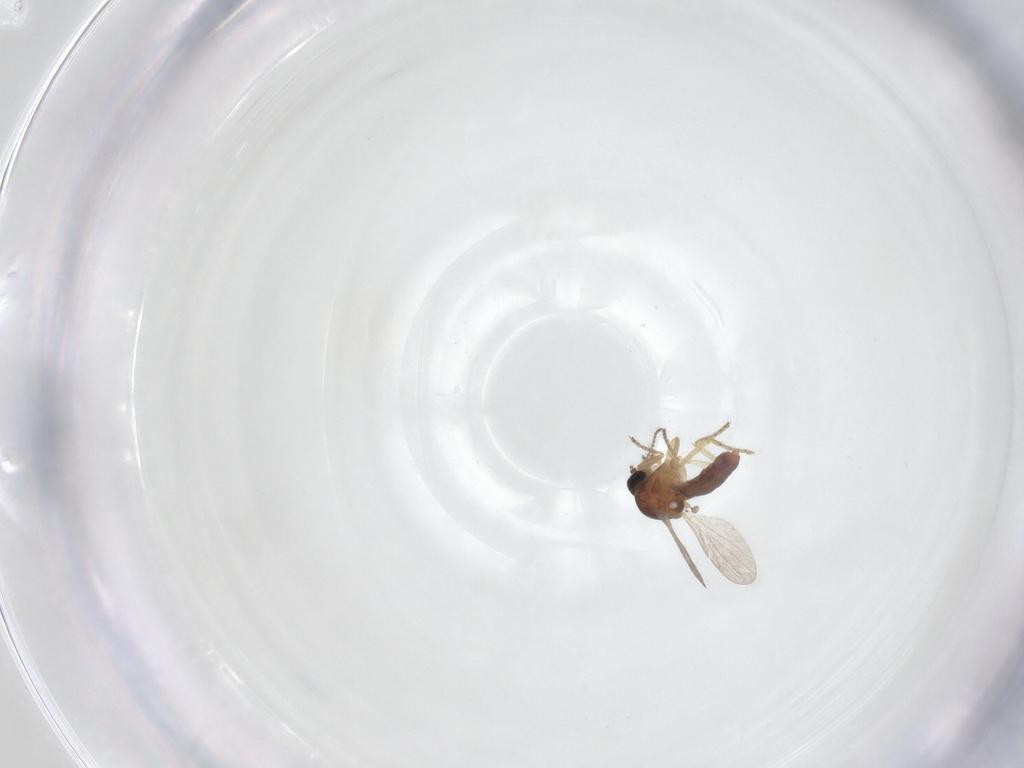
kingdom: Animalia
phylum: Arthropoda
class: Insecta
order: Diptera
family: Ceratopogonidae
